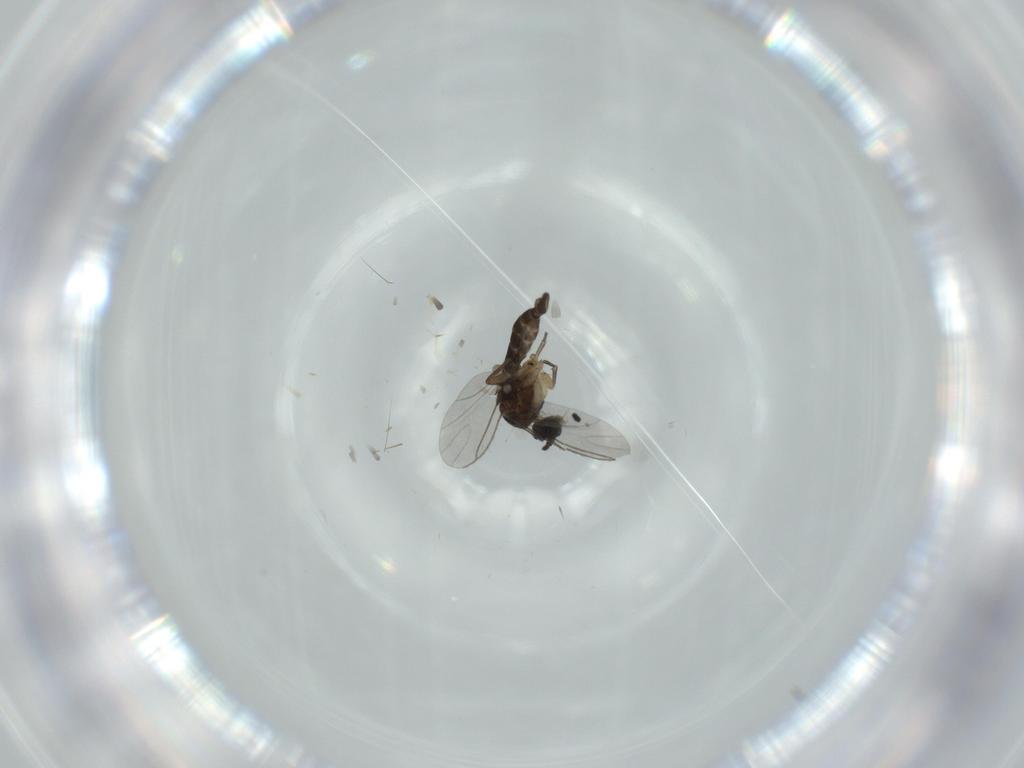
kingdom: Animalia
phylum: Arthropoda
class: Insecta
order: Diptera
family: Sciaridae
